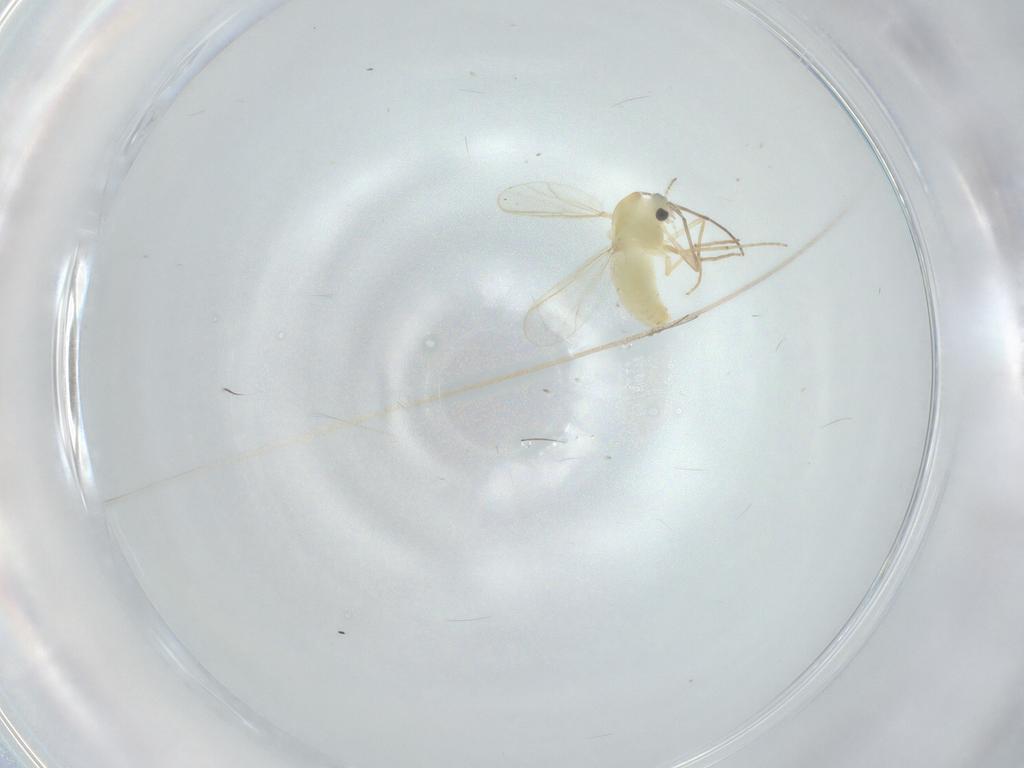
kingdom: Animalia
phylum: Arthropoda
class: Insecta
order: Diptera
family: Chironomidae
